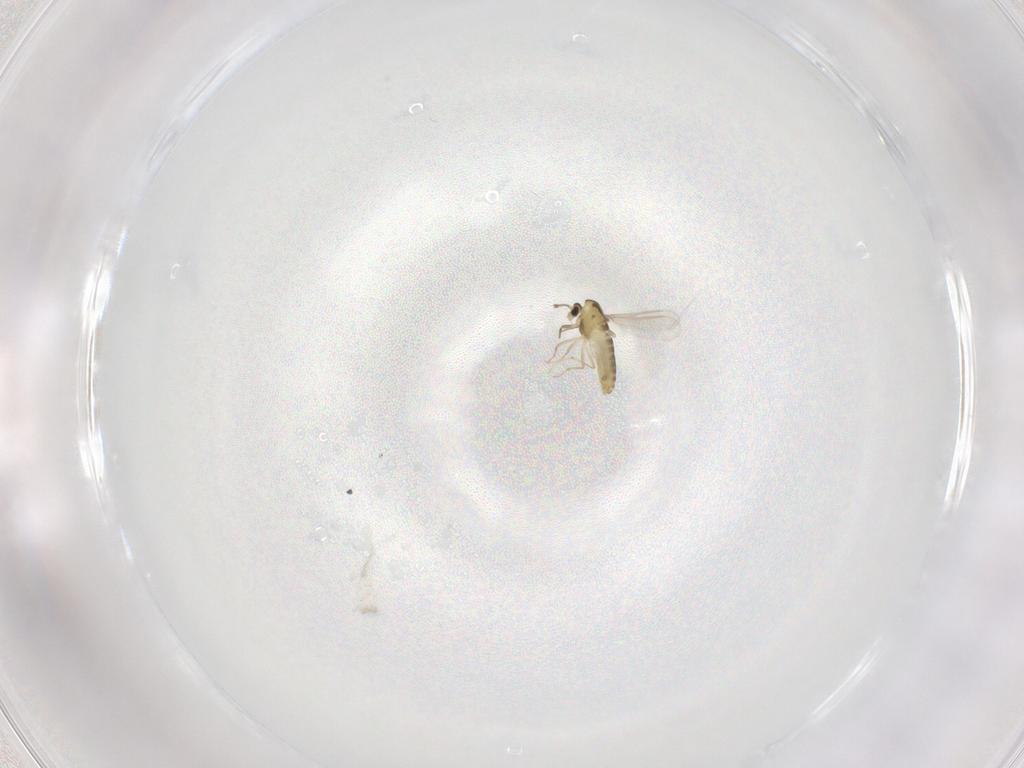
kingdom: Animalia
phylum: Arthropoda
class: Insecta
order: Diptera
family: Chironomidae
